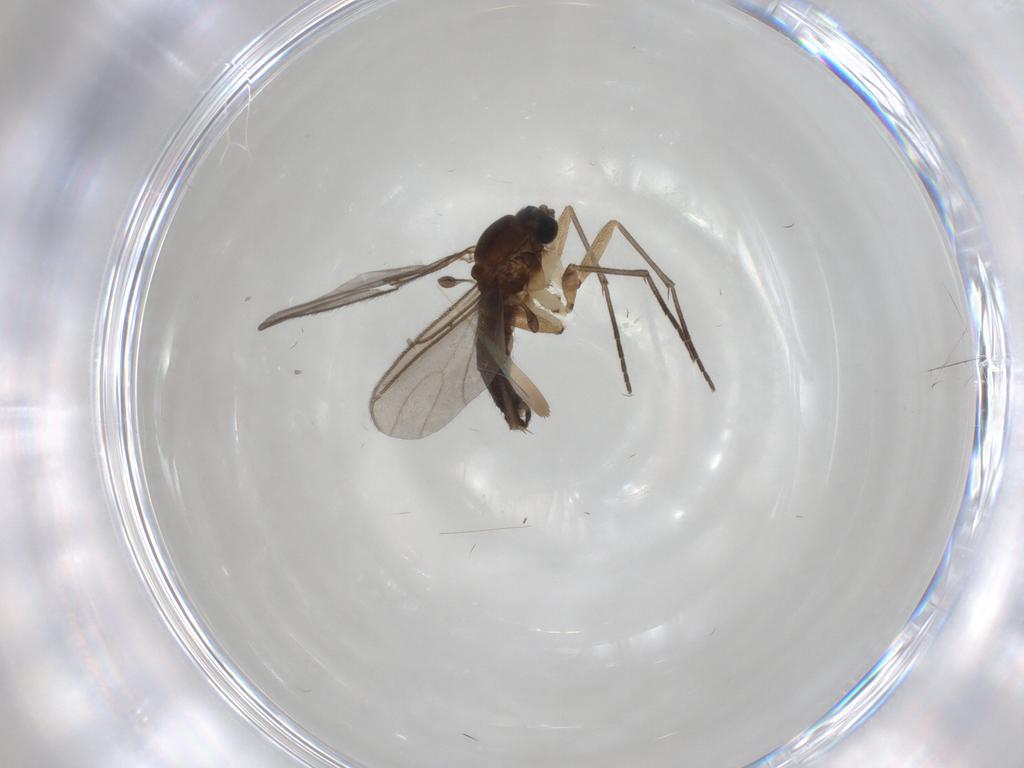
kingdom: Animalia
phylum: Arthropoda
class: Insecta
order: Diptera
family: Sciaridae
